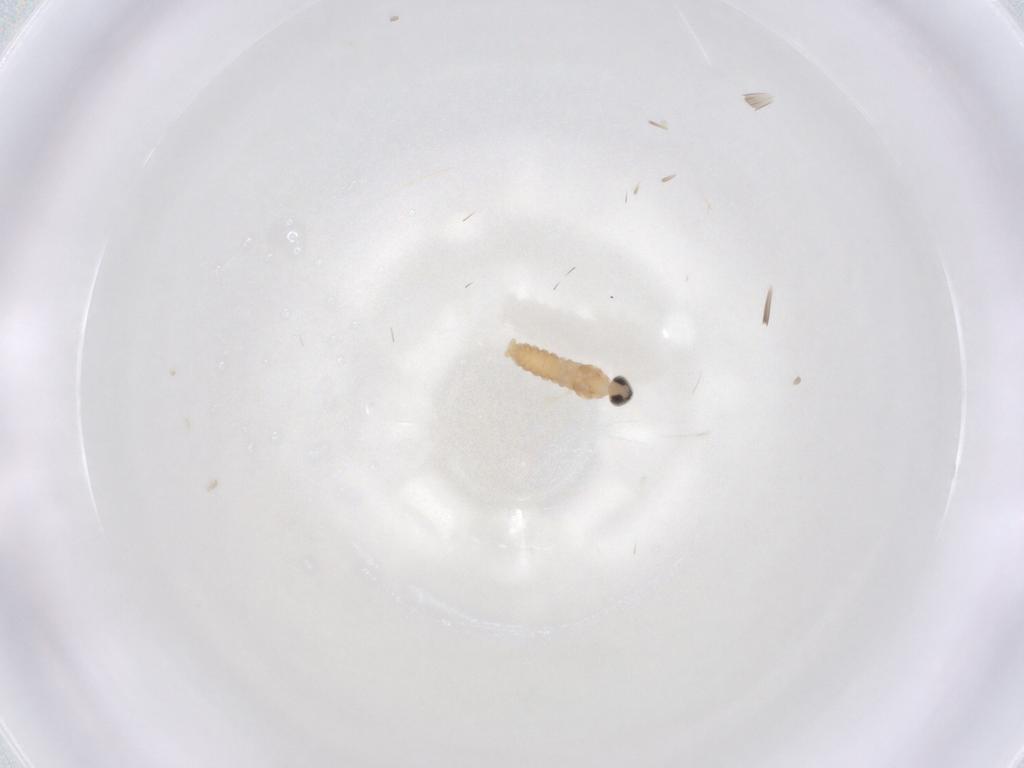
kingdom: Animalia
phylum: Arthropoda
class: Insecta
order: Diptera
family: Cecidomyiidae
